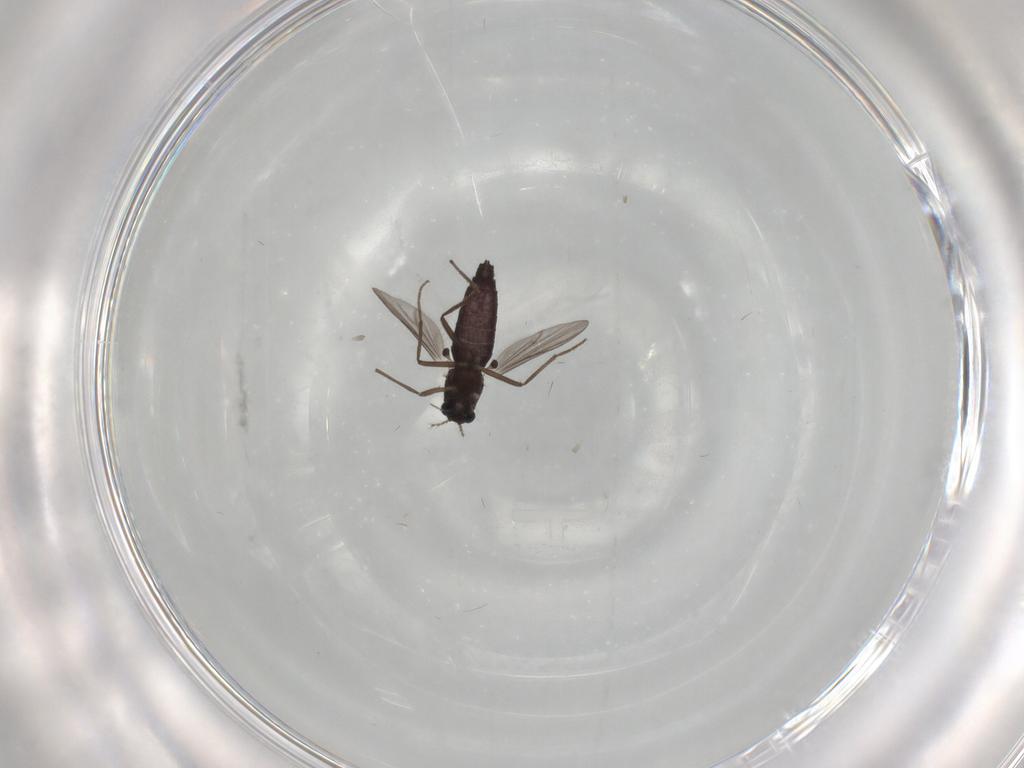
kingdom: Animalia
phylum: Arthropoda
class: Insecta
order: Diptera
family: Chironomidae
